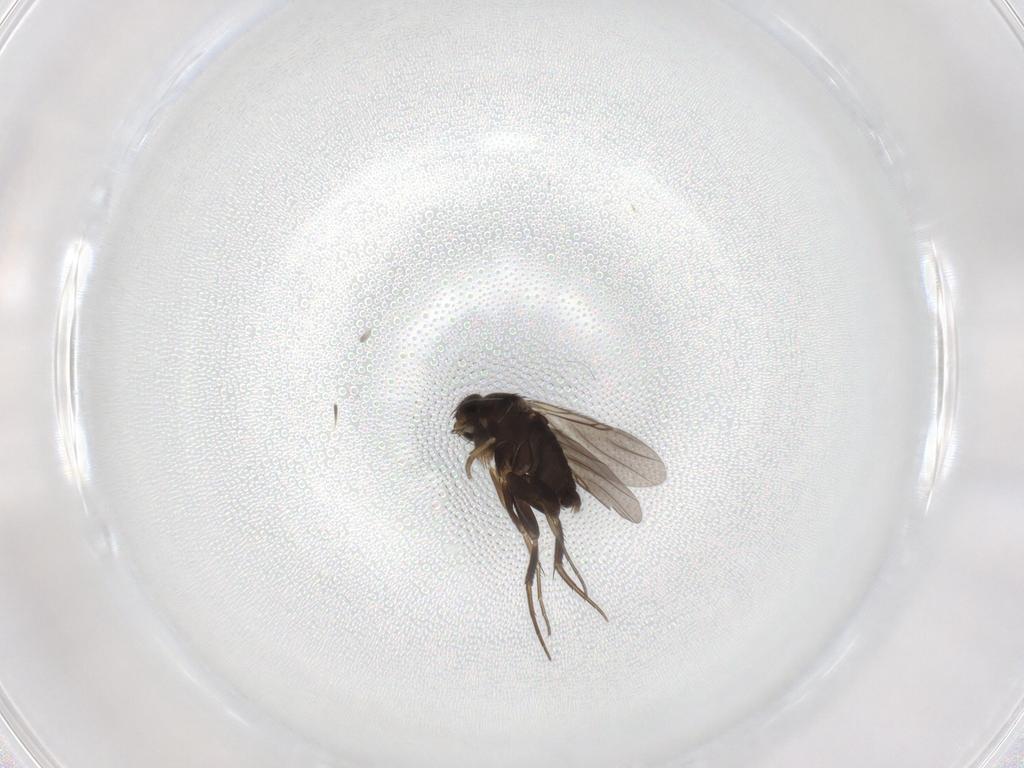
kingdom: Animalia
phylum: Arthropoda
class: Insecta
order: Diptera
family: Phoridae
